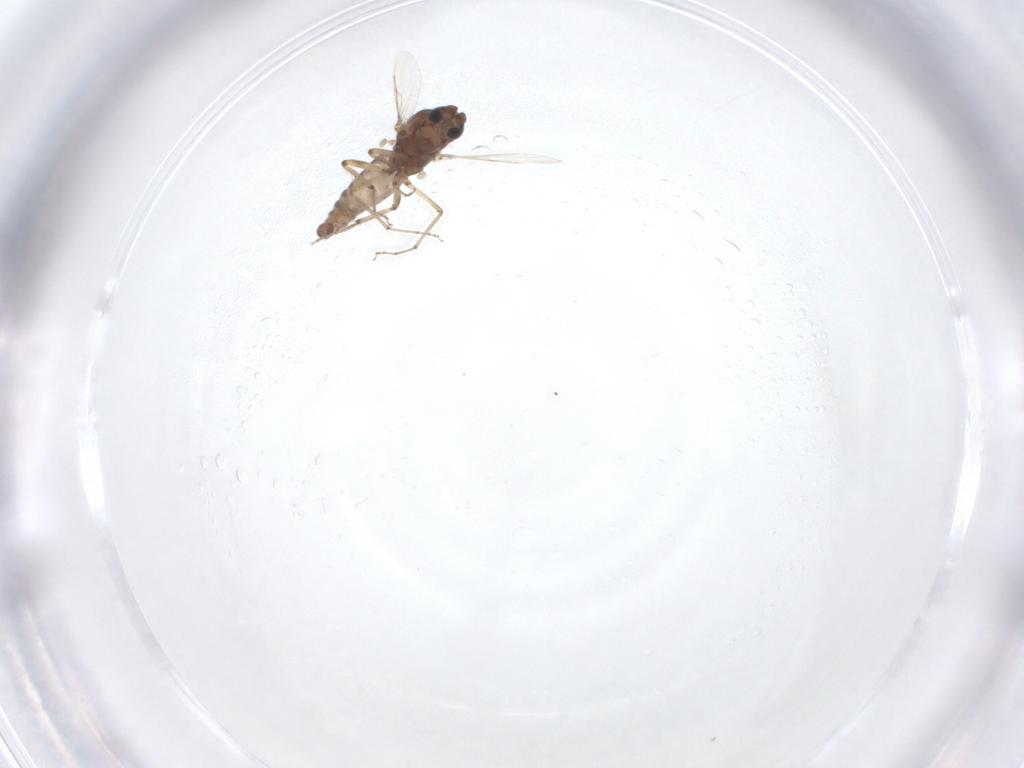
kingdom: Animalia
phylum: Arthropoda
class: Insecta
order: Diptera
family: Ceratopogonidae
